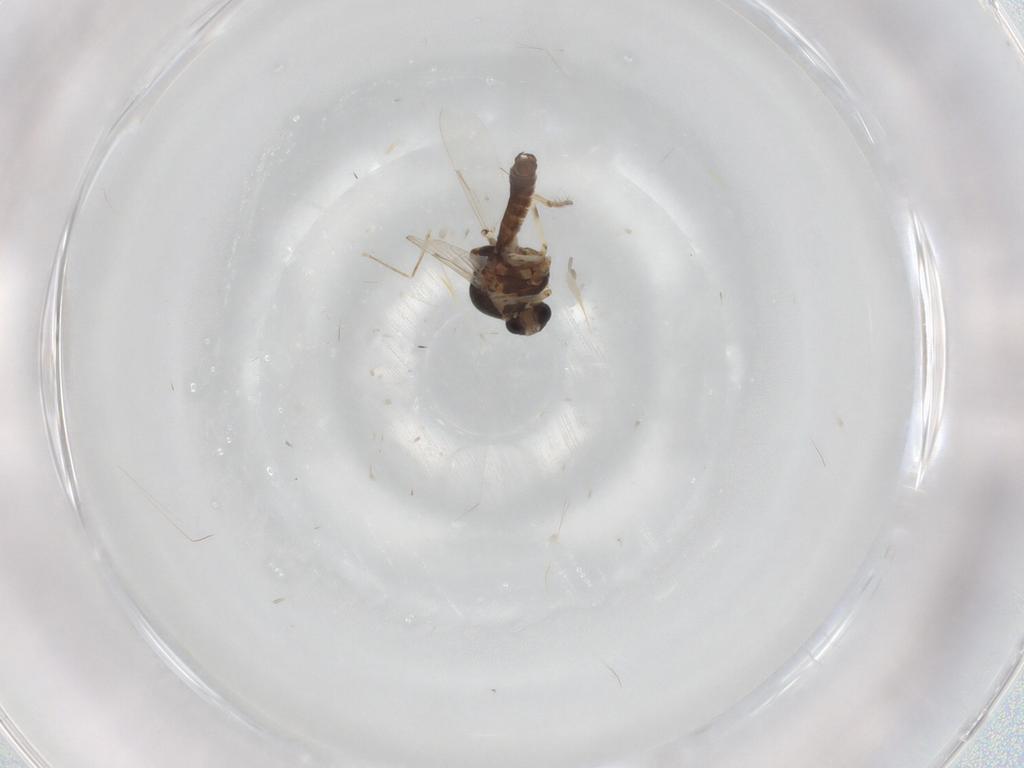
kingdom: Animalia
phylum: Arthropoda
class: Insecta
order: Diptera
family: Ceratopogonidae
